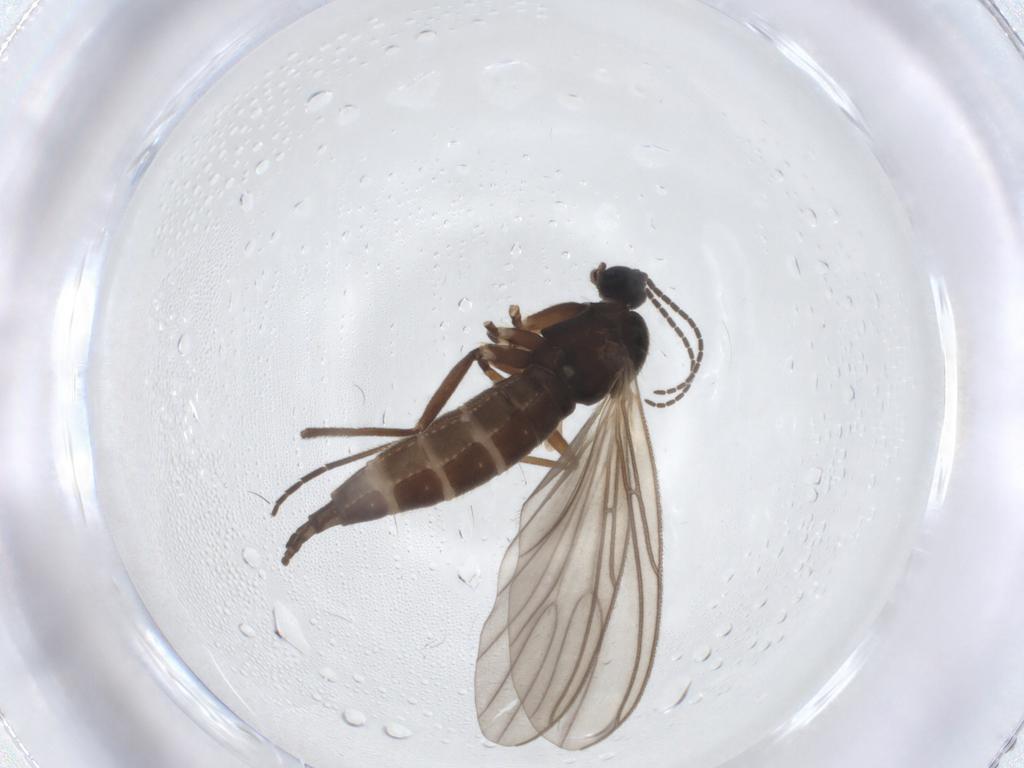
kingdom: Animalia
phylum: Arthropoda
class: Insecta
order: Diptera
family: Sciaridae
